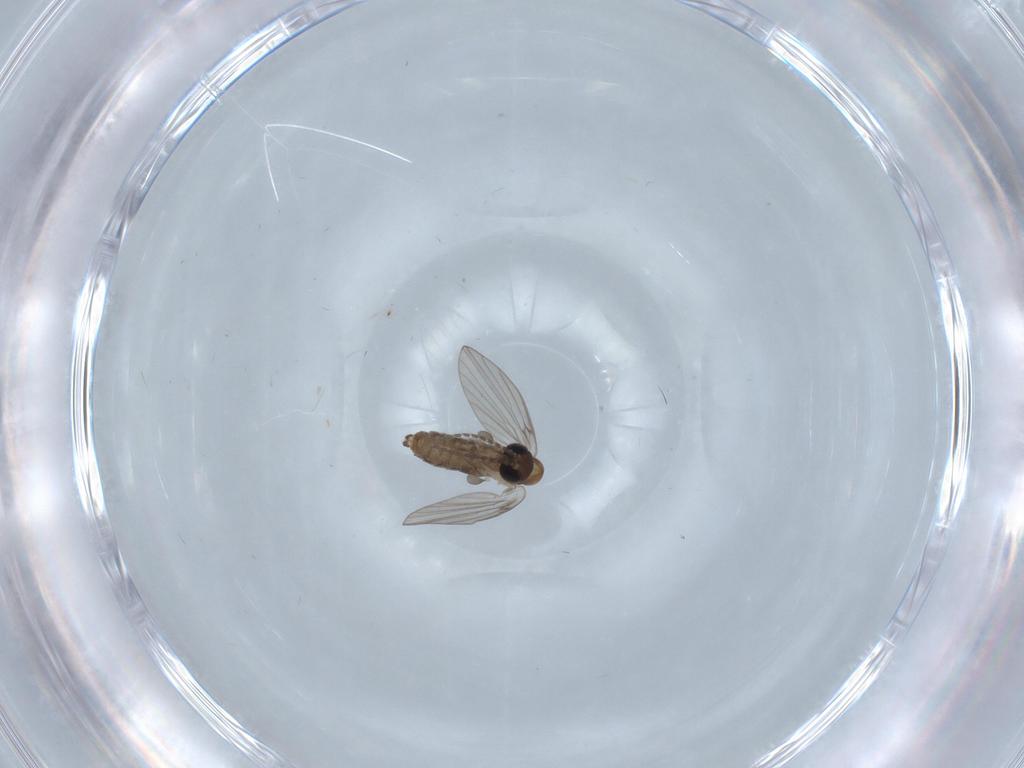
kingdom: Animalia
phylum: Arthropoda
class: Insecta
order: Diptera
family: Psychodidae
